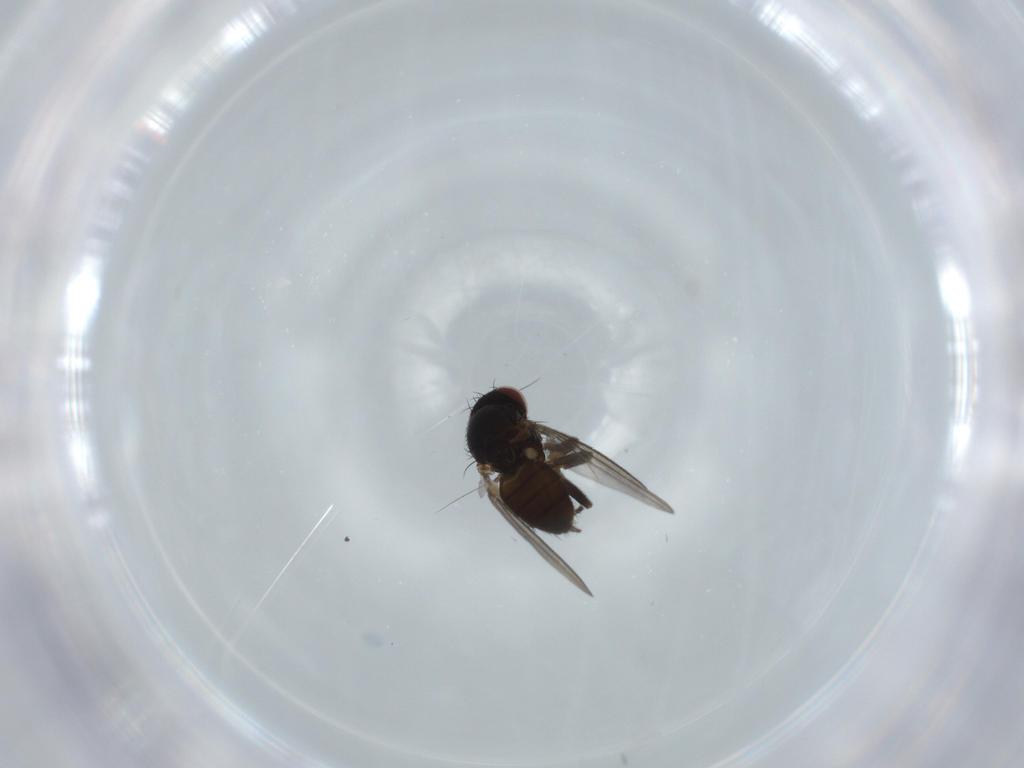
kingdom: Animalia
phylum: Arthropoda
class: Insecta
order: Diptera
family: Milichiidae
